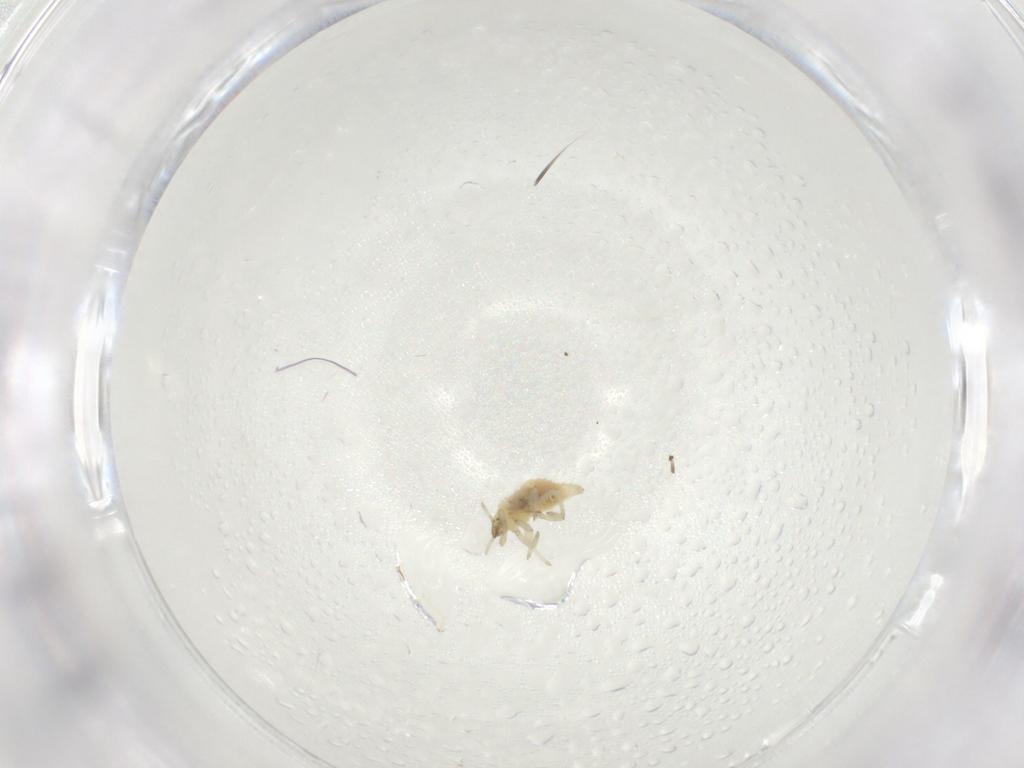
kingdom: Animalia
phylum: Arthropoda
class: Insecta
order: Neuroptera
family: Coniopterygidae
